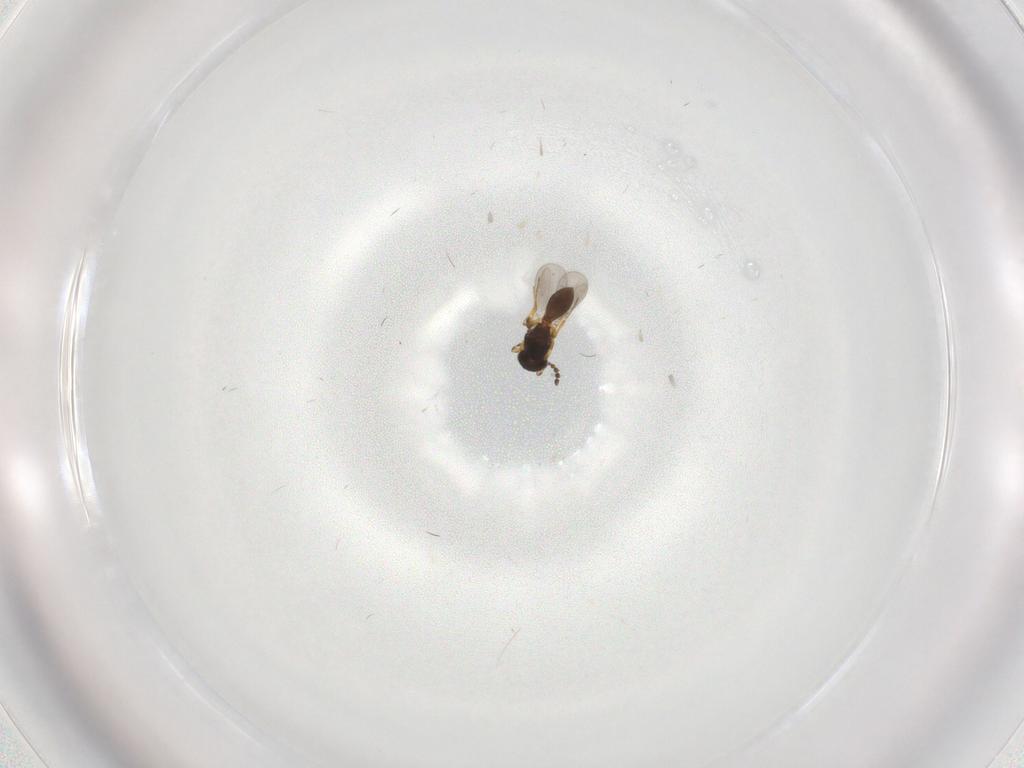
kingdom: Animalia
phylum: Arthropoda
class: Insecta
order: Hymenoptera
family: Platygastridae
